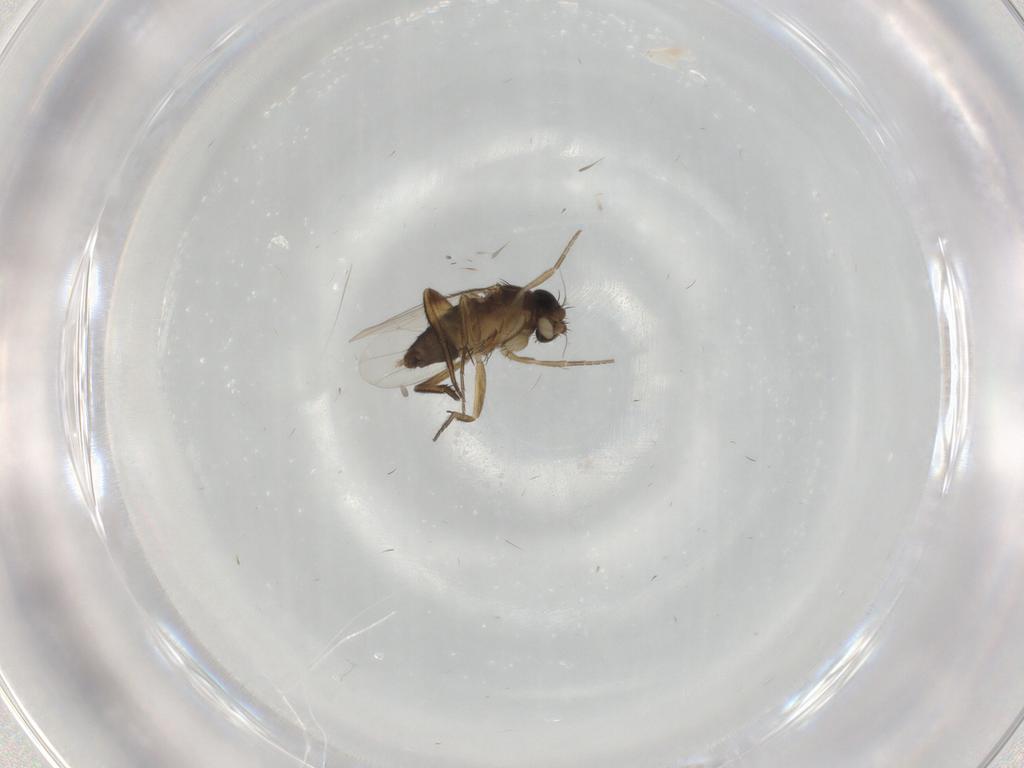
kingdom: Animalia
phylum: Arthropoda
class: Insecta
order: Diptera
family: Phoridae
